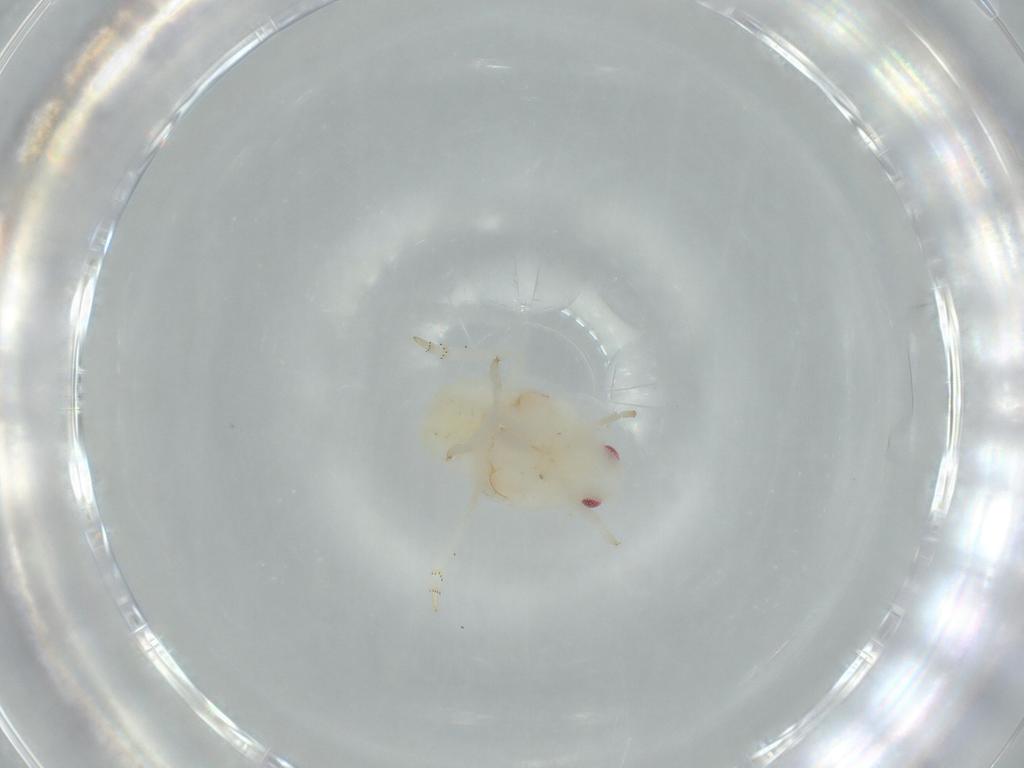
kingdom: Animalia
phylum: Arthropoda
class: Insecta
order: Hemiptera
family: Flatidae
